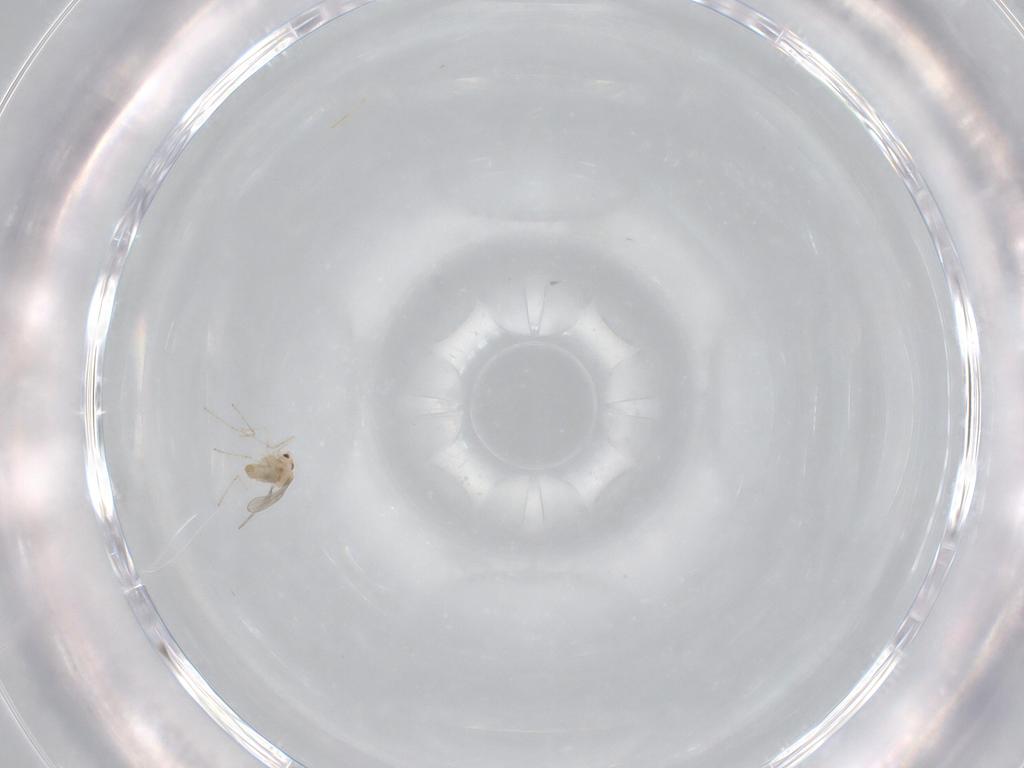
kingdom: Animalia
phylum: Arthropoda
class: Insecta
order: Diptera
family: Cecidomyiidae
